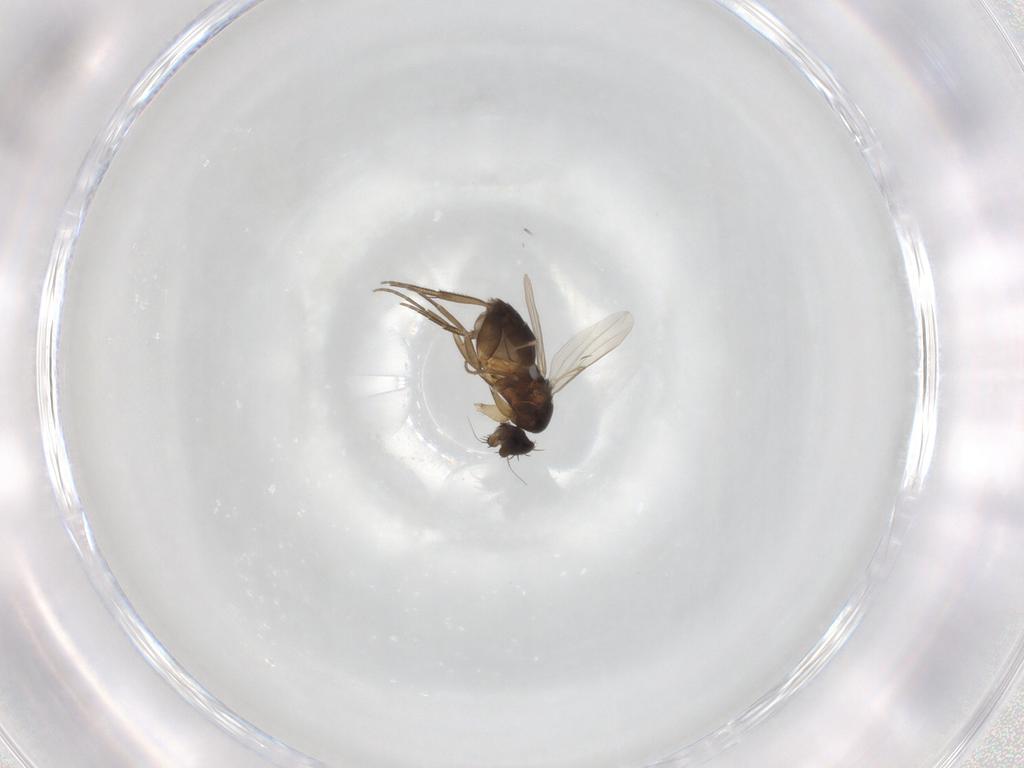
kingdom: Animalia
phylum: Arthropoda
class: Insecta
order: Diptera
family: Phoridae
